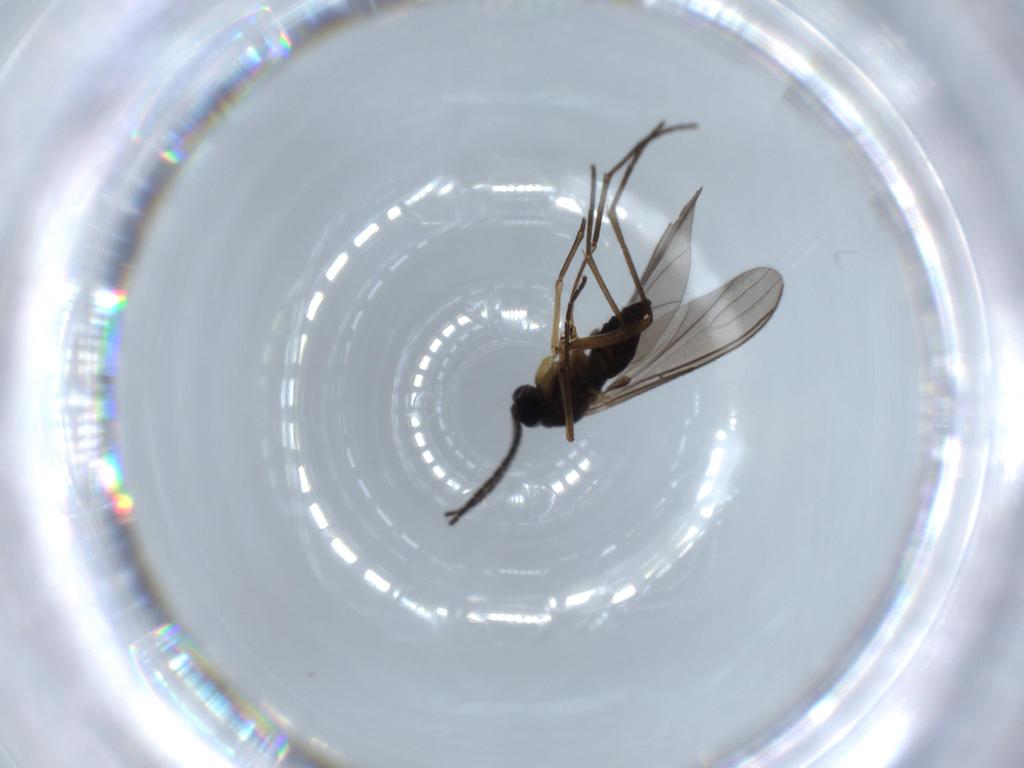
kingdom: Animalia
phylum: Arthropoda
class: Insecta
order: Diptera
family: Sciaridae
